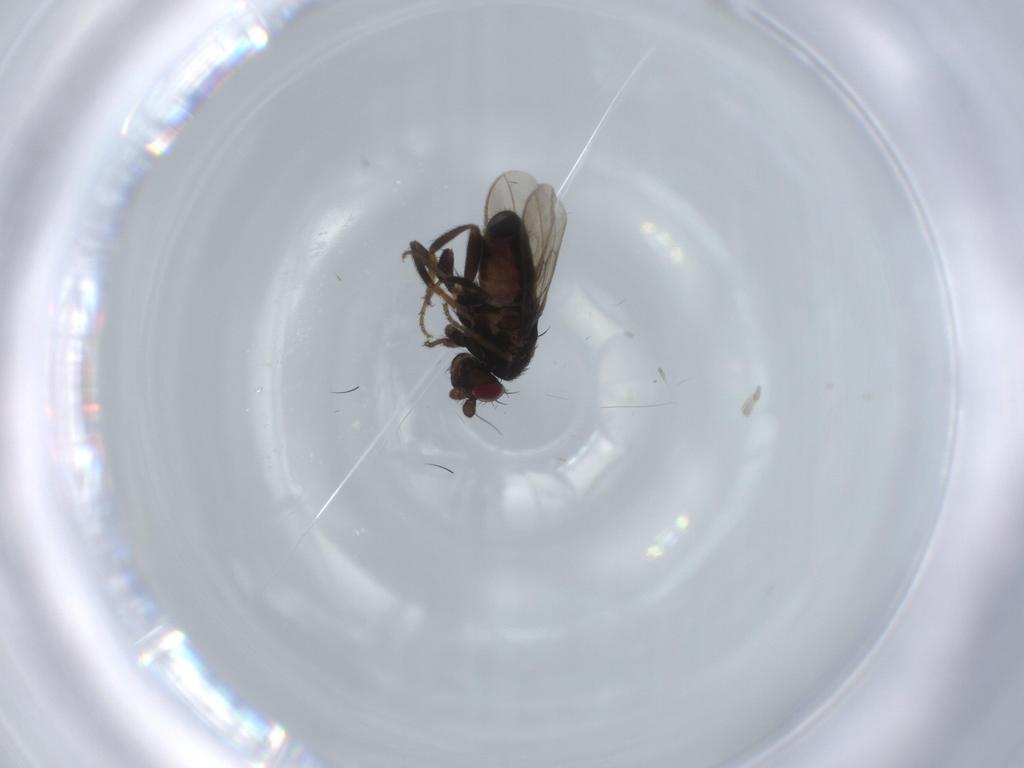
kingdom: Animalia
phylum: Arthropoda
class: Insecta
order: Diptera
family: Sphaeroceridae
